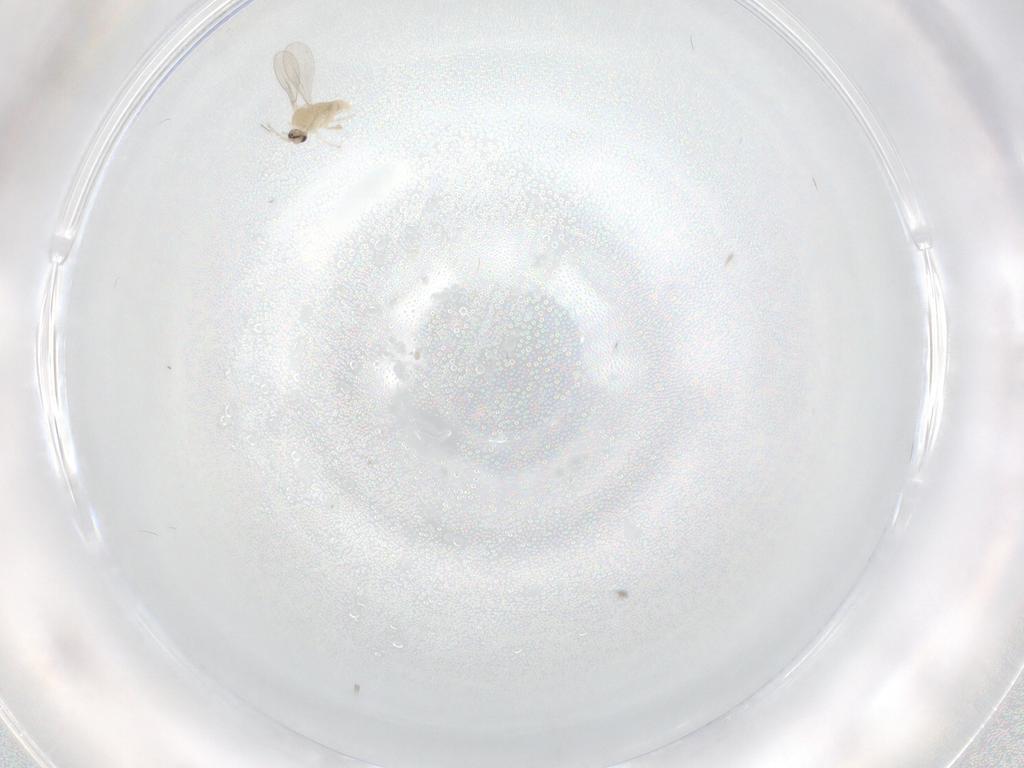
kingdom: Animalia
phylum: Arthropoda
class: Insecta
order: Diptera
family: Cecidomyiidae
